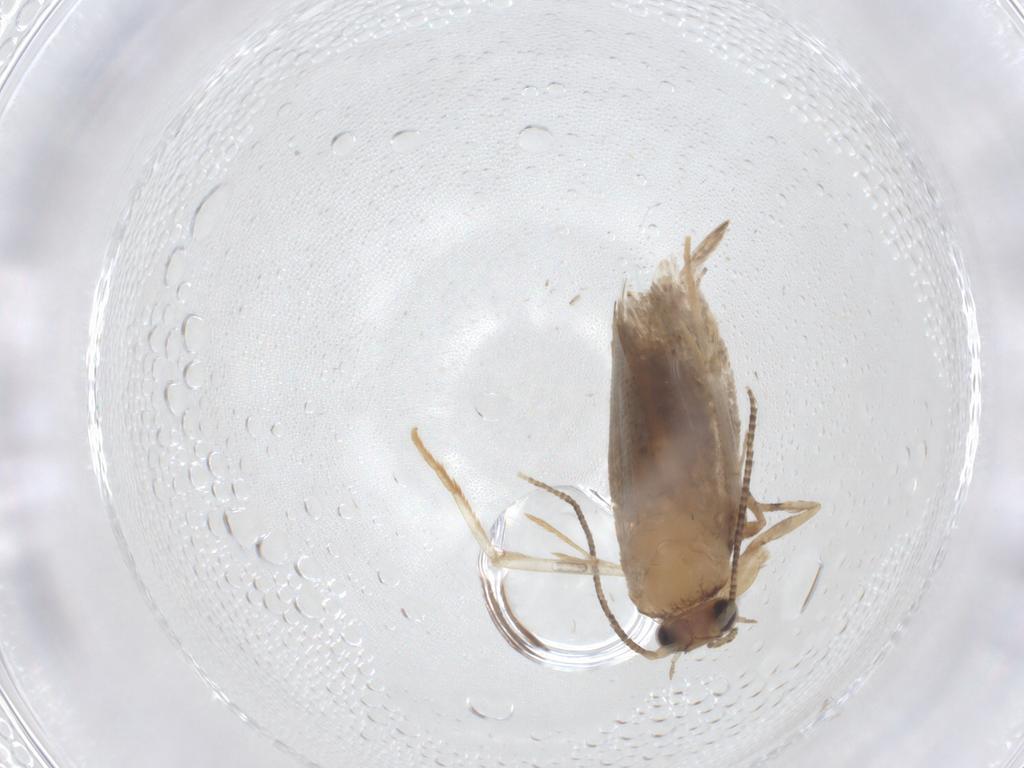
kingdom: Animalia
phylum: Arthropoda
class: Insecta
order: Lepidoptera
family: Tineidae
